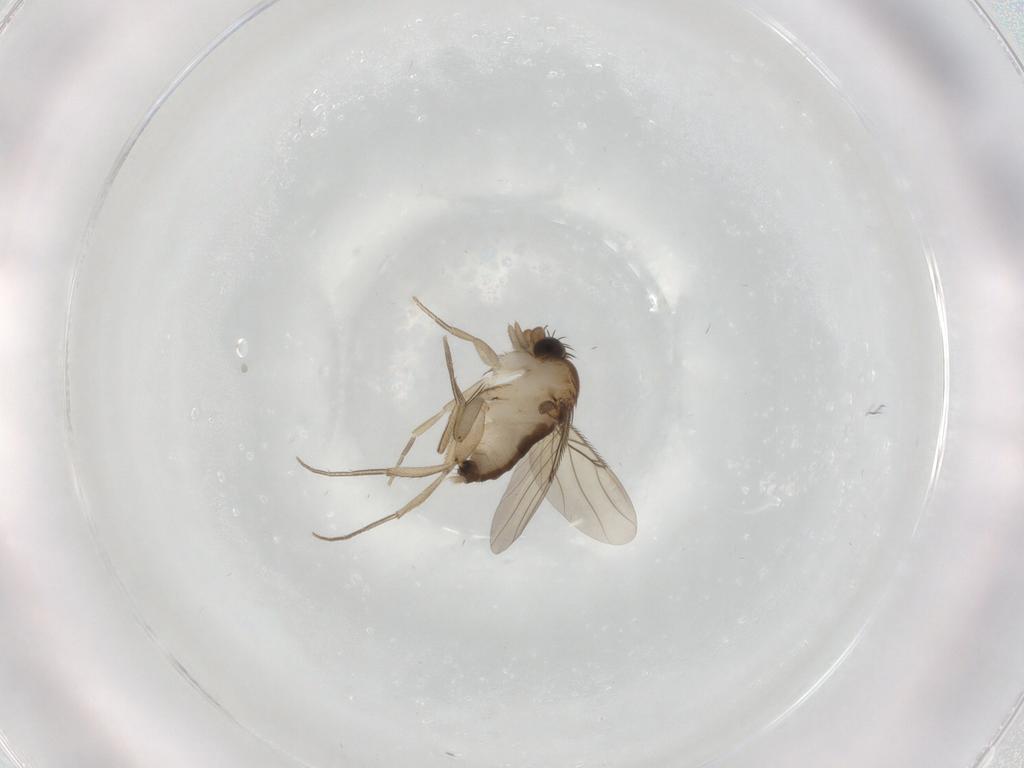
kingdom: Animalia
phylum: Arthropoda
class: Insecta
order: Diptera
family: Phoridae
